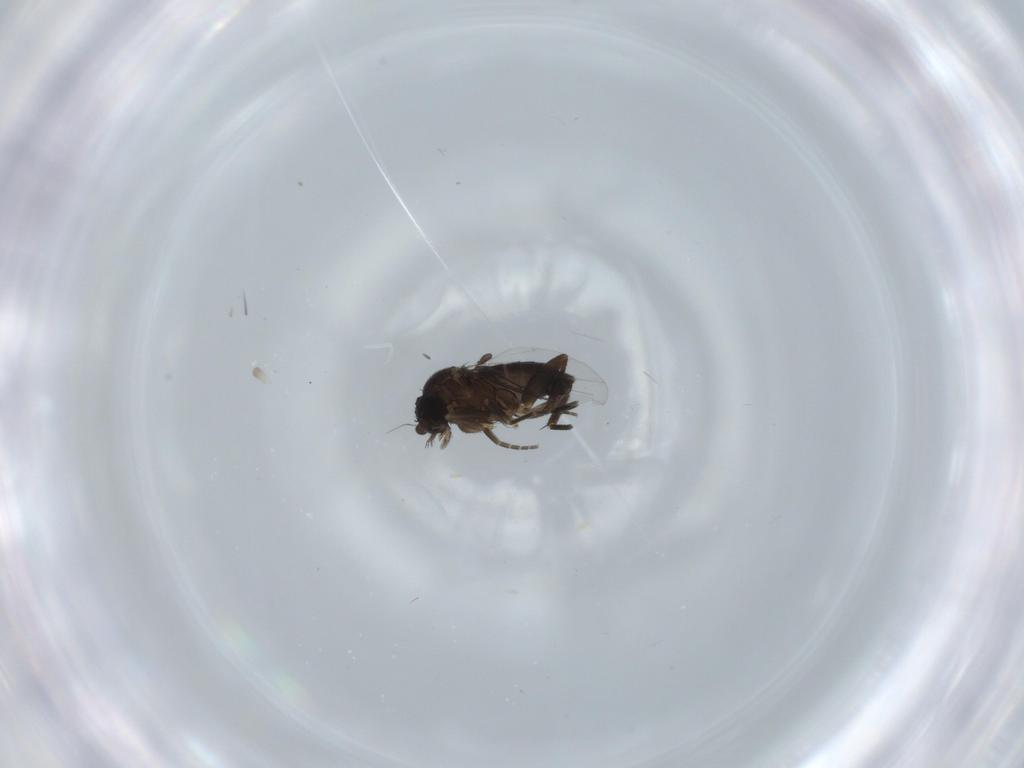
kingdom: Animalia
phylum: Arthropoda
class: Insecta
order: Diptera
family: Phoridae
